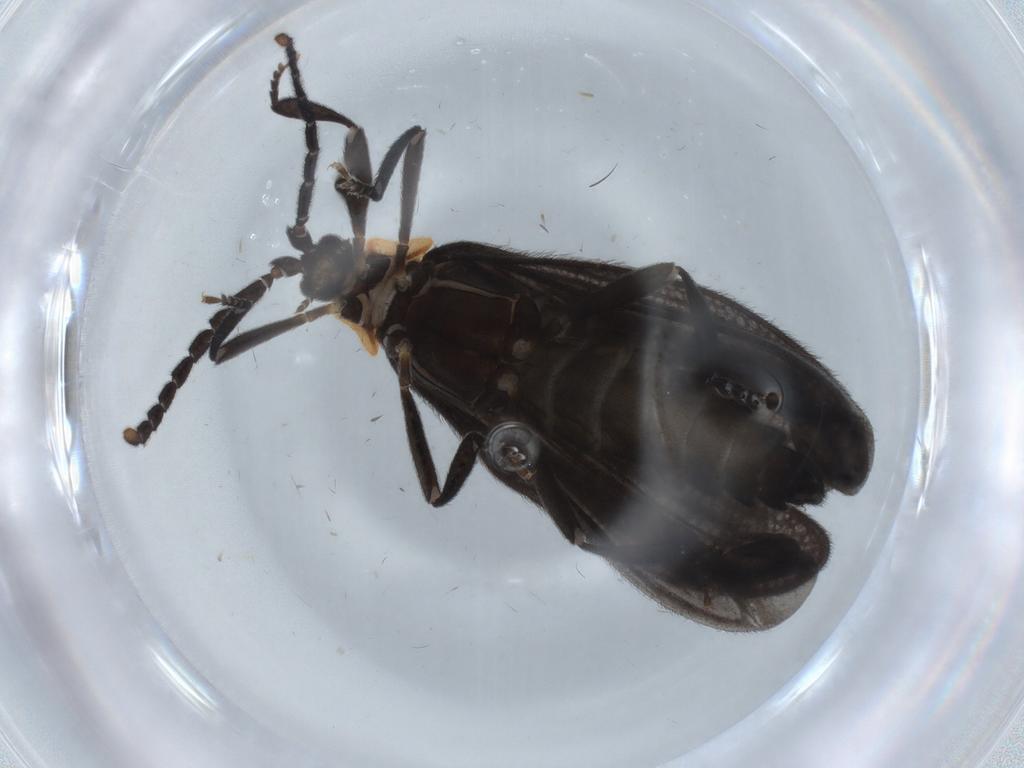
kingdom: Animalia
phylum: Arthropoda
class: Insecta
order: Coleoptera
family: Lycidae
